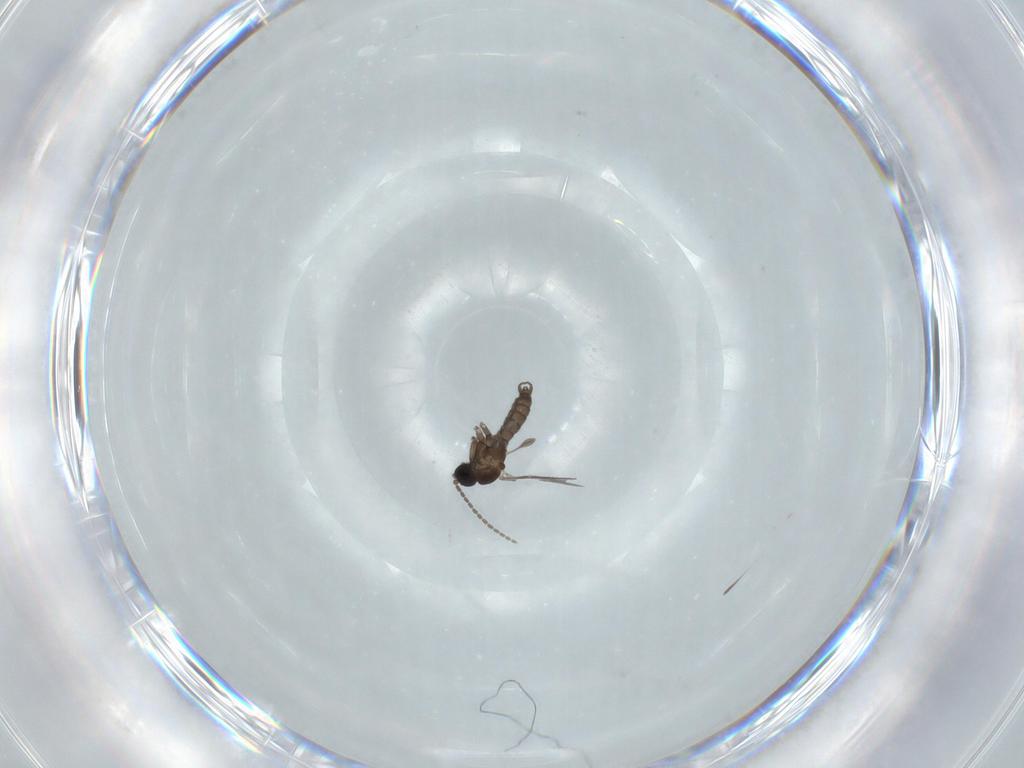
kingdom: Animalia
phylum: Arthropoda
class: Insecta
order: Diptera
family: Sciaridae
